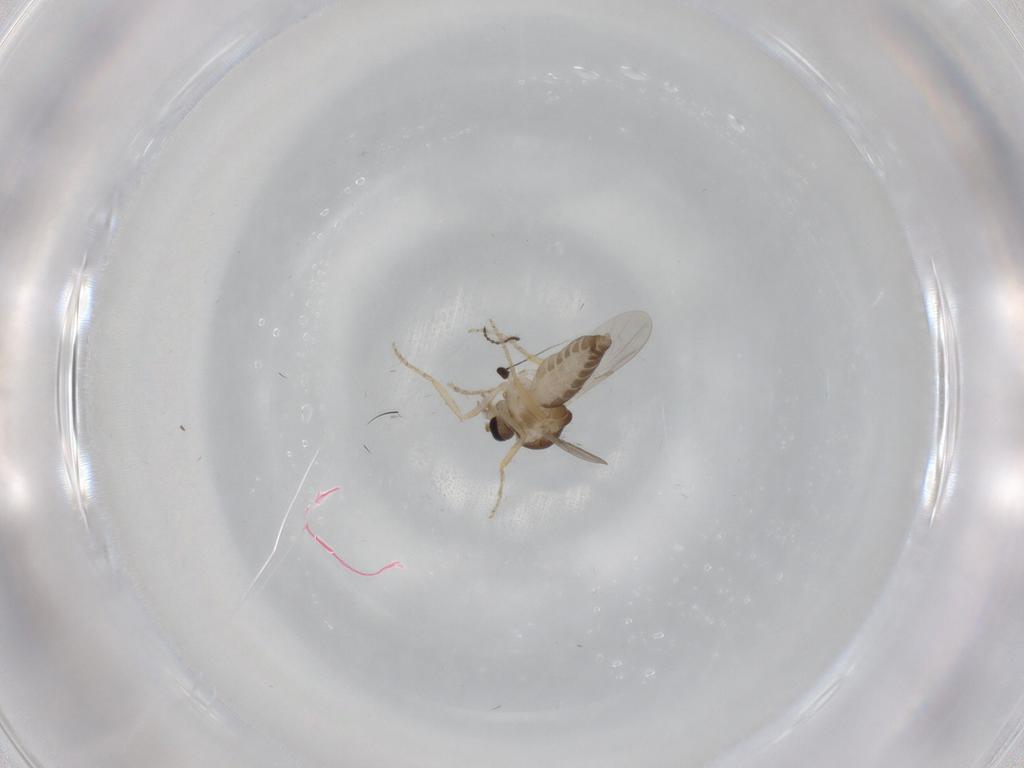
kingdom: Animalia
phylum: Arthropoda
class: Insecta
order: Diptera
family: Ceratopogonidae
